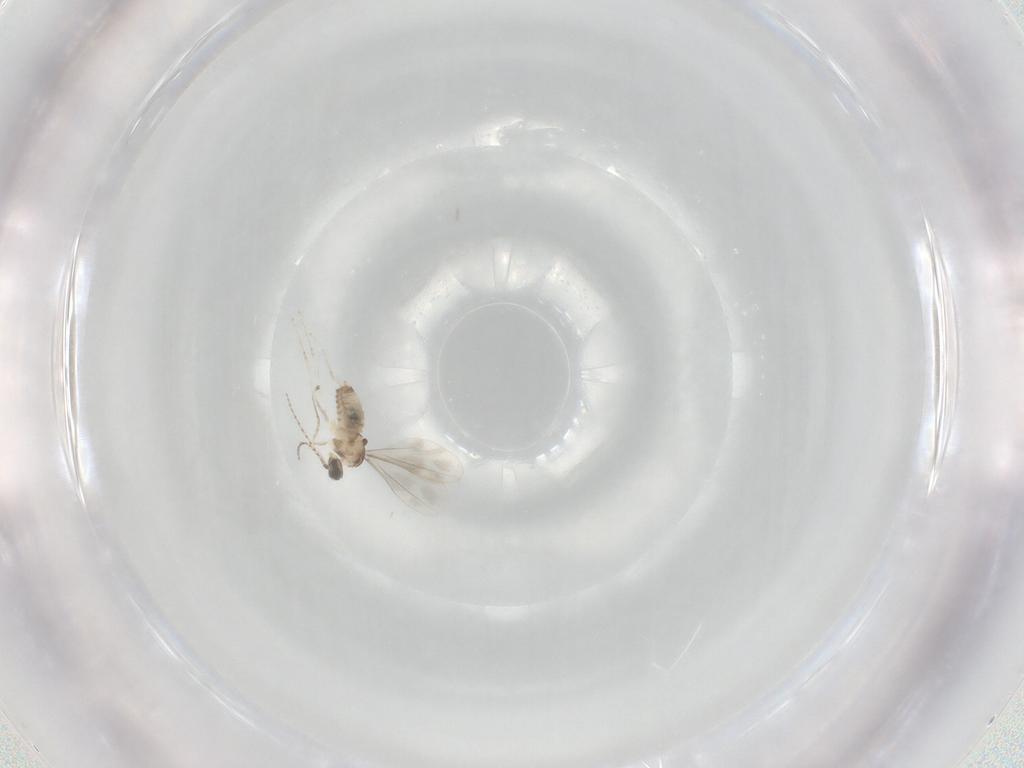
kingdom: Animalia
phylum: Arthropoda
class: Insecta
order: Diptera
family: Cecidomyiidae
